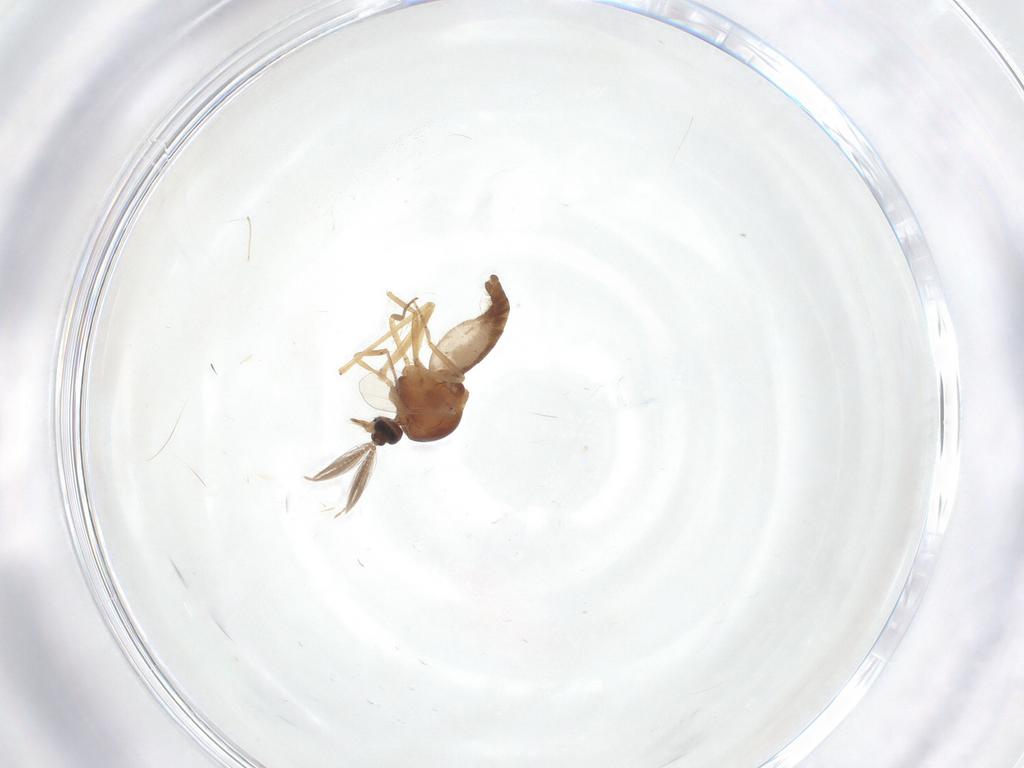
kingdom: Animalia
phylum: Arthropoda
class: Insecta
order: Diptera
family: Ceratopogonidae
